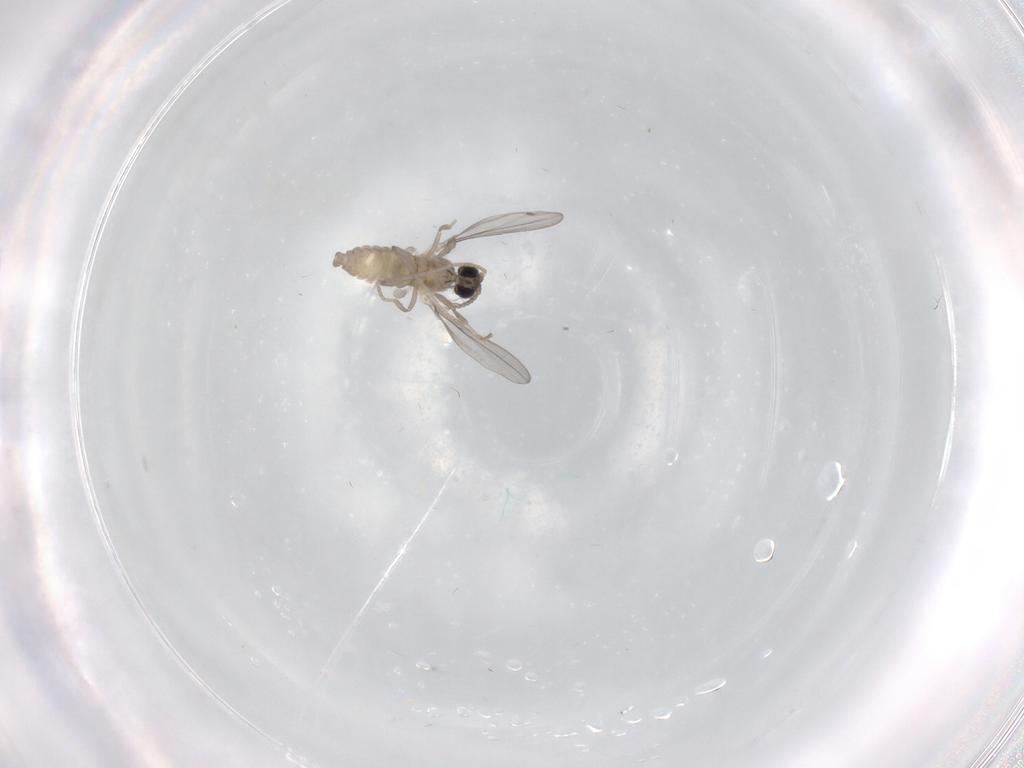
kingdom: Animalia
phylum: Arthropoda
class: Insecta
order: Diptera
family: Cecidomyiidae
